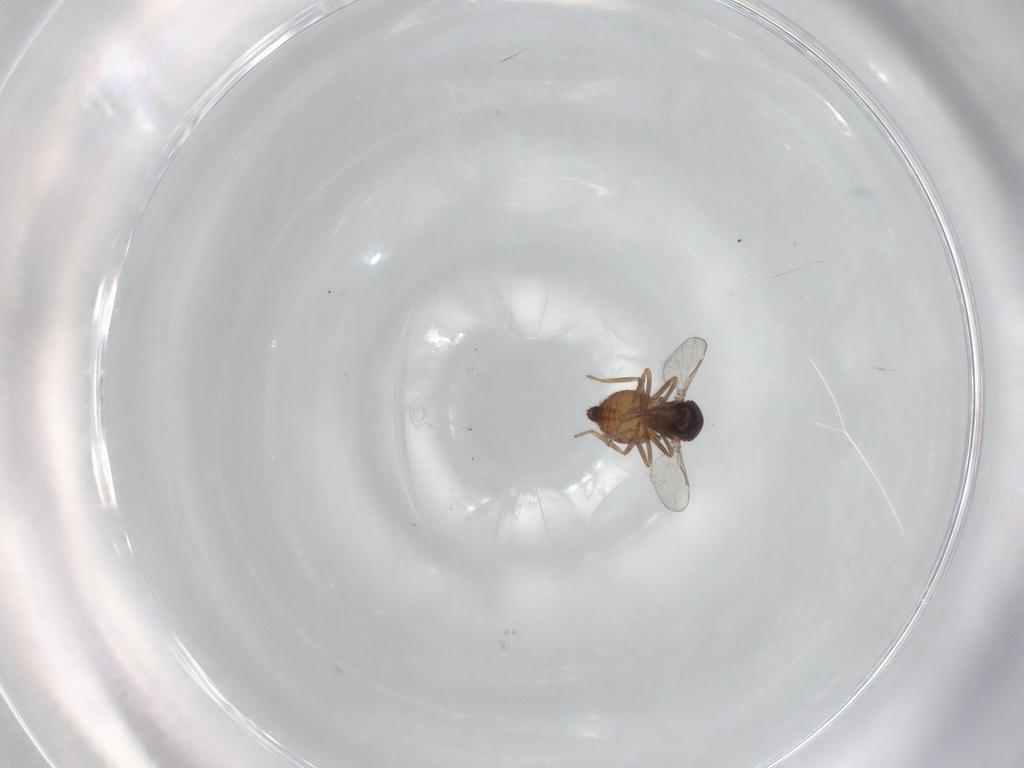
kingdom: Animalia
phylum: Arthropoda
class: Insecta
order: Diptera
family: Ceratopogonidae
